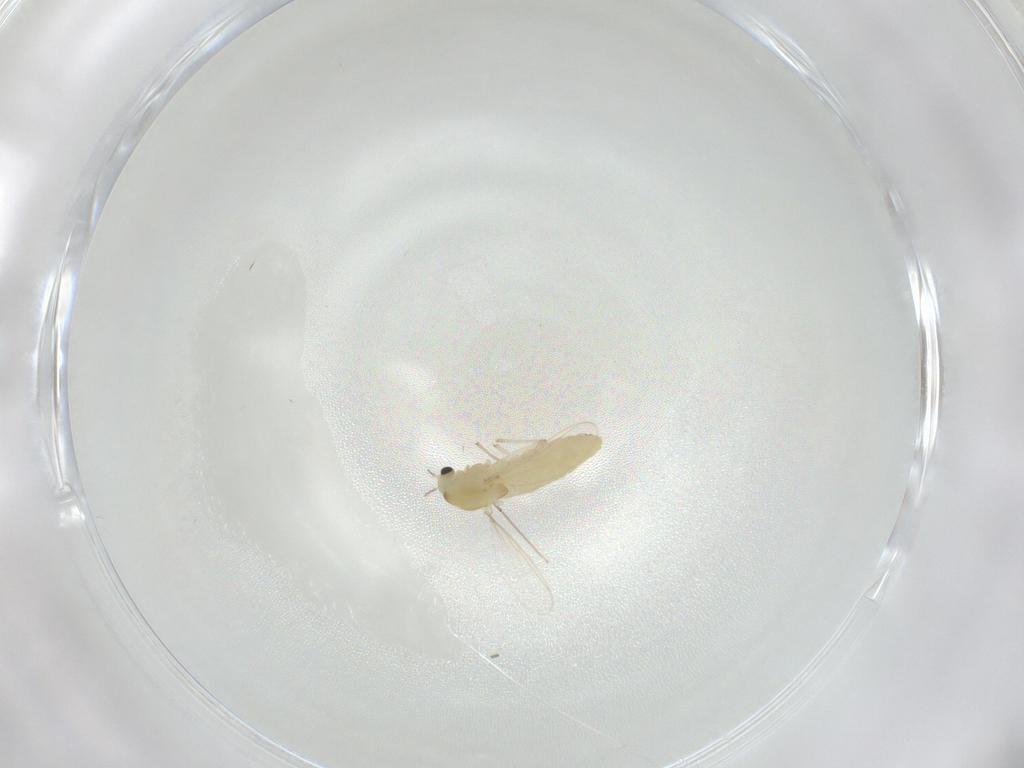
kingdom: Animalia
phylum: Arthropoda
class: Insecta
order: Diptera
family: Chironomidae
